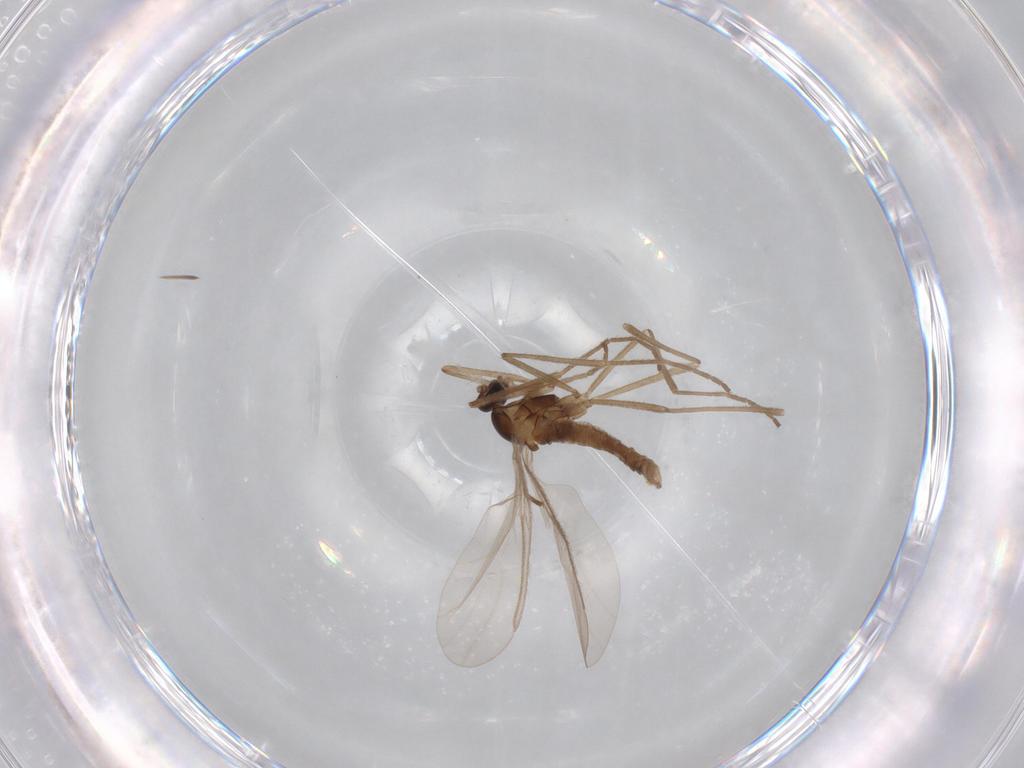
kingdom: Animalia
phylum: Arthropoda
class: Insecta
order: Diptera
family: Cecidomyiidae
